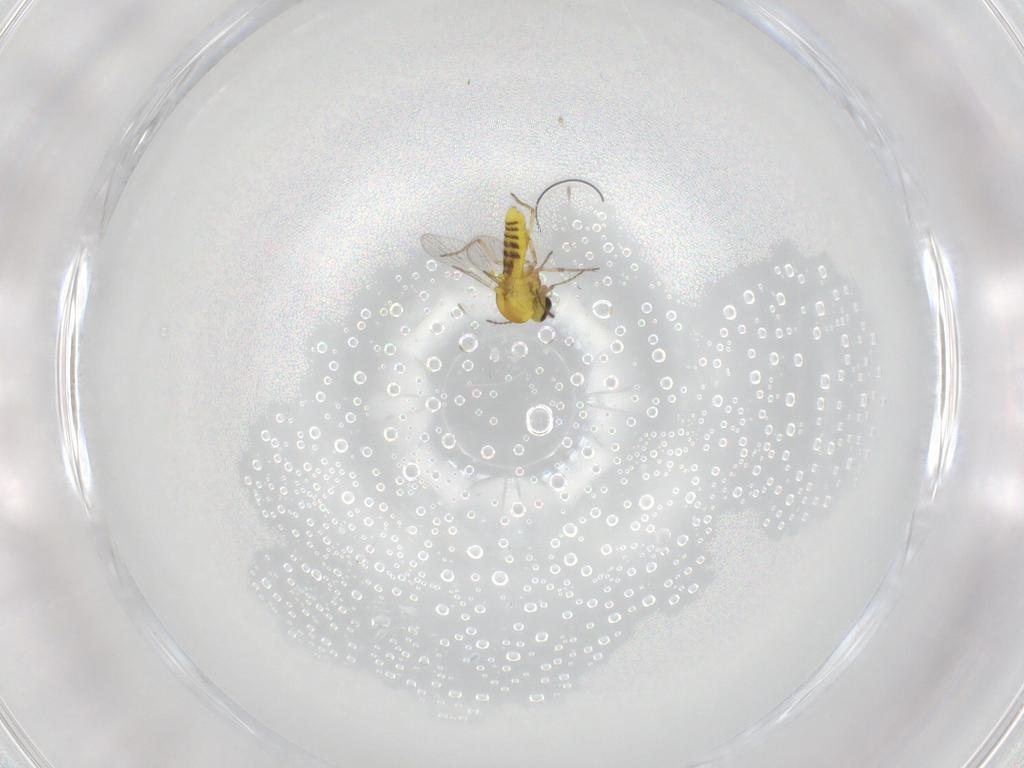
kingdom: Animalia
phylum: Arthropoda
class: Insecta
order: Diptera
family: Ceratopogonidae
